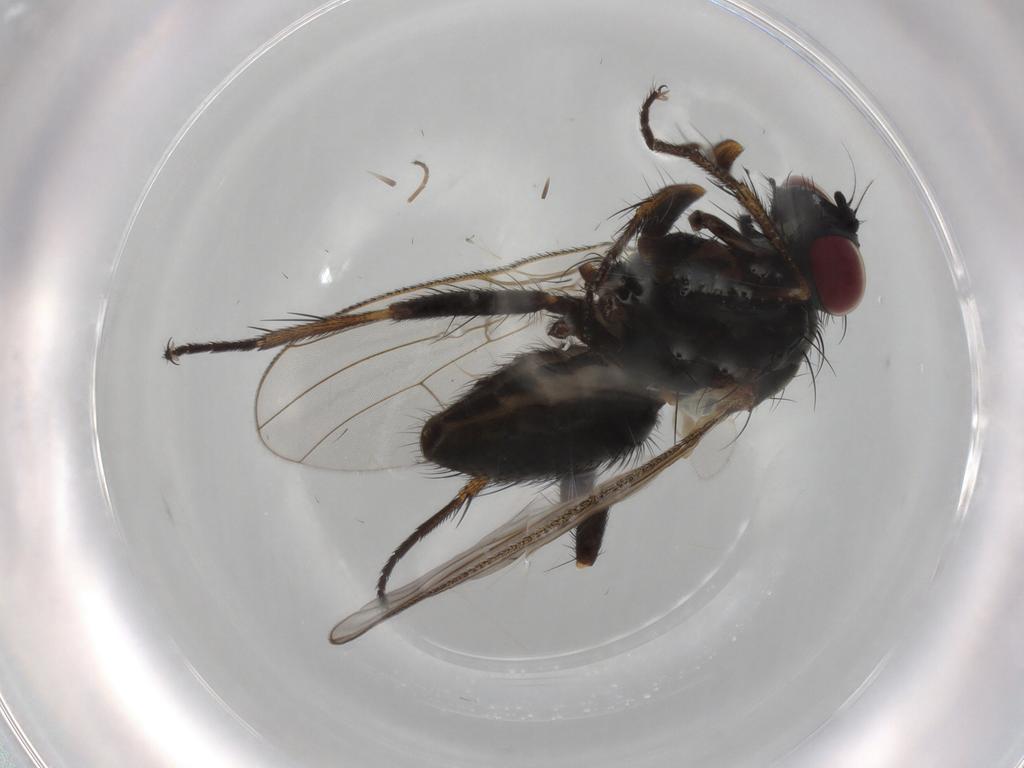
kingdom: Animalia
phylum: Arthropoda
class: Insecta
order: Diptera
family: Muscidae
